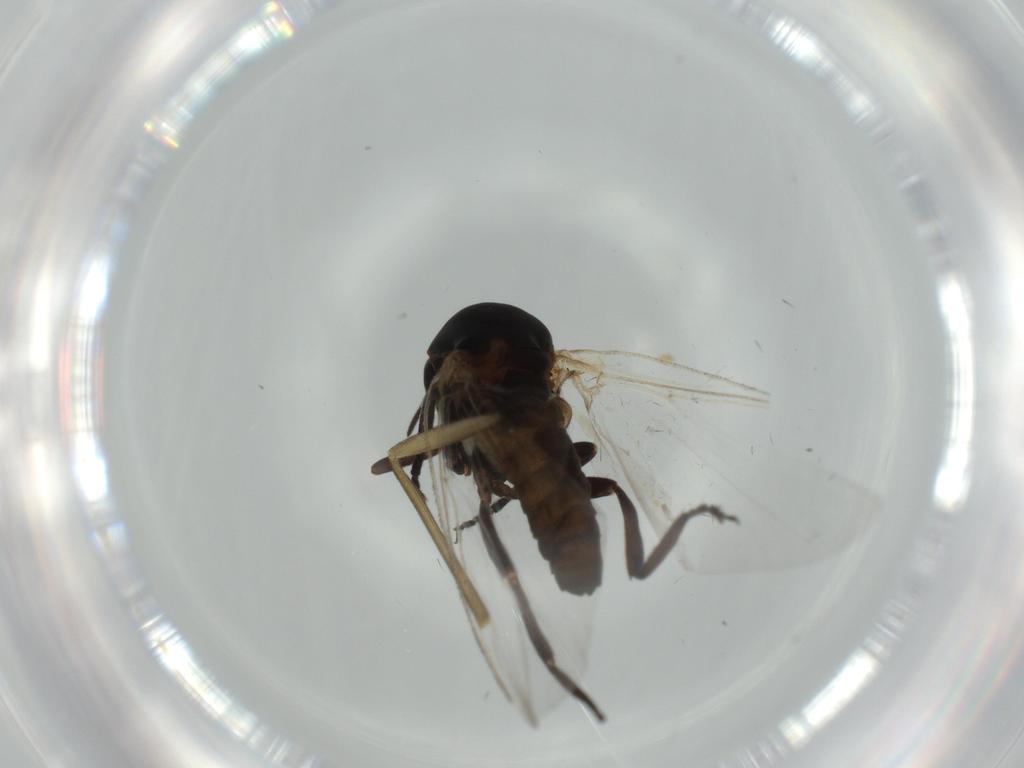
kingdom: Animalia
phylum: Arthropoda
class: Insecta
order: Diptera
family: Phoridae
